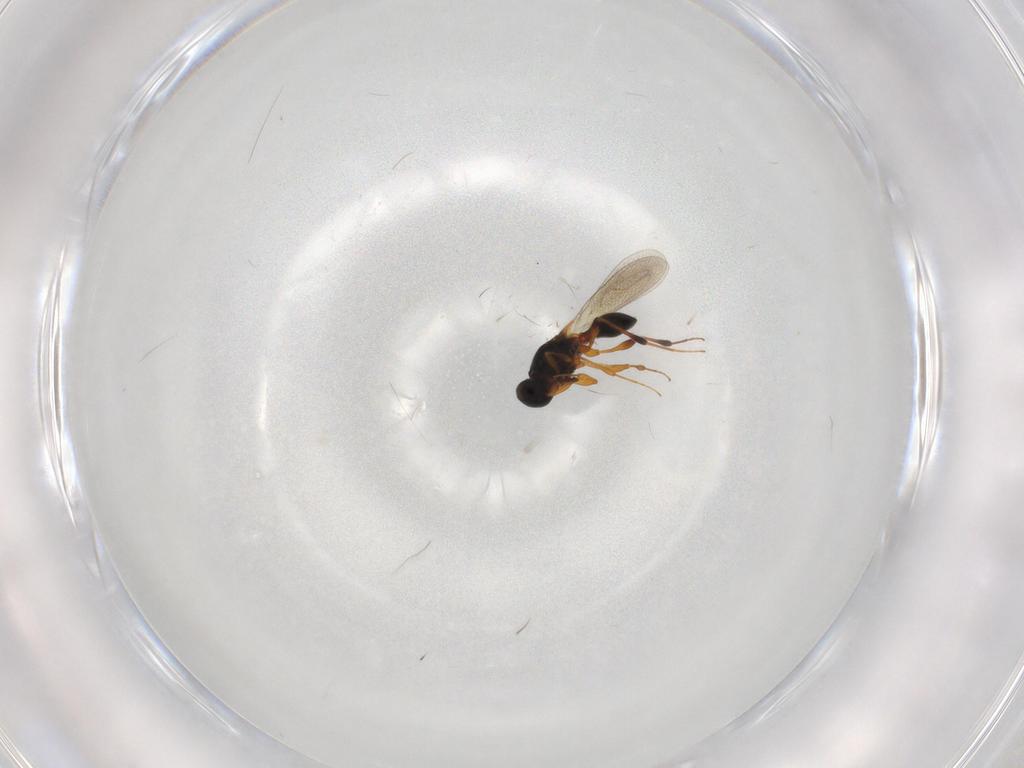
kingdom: Animalia
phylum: Arthropoda
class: Insecta
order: Hymenoptera
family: Platygastridae
